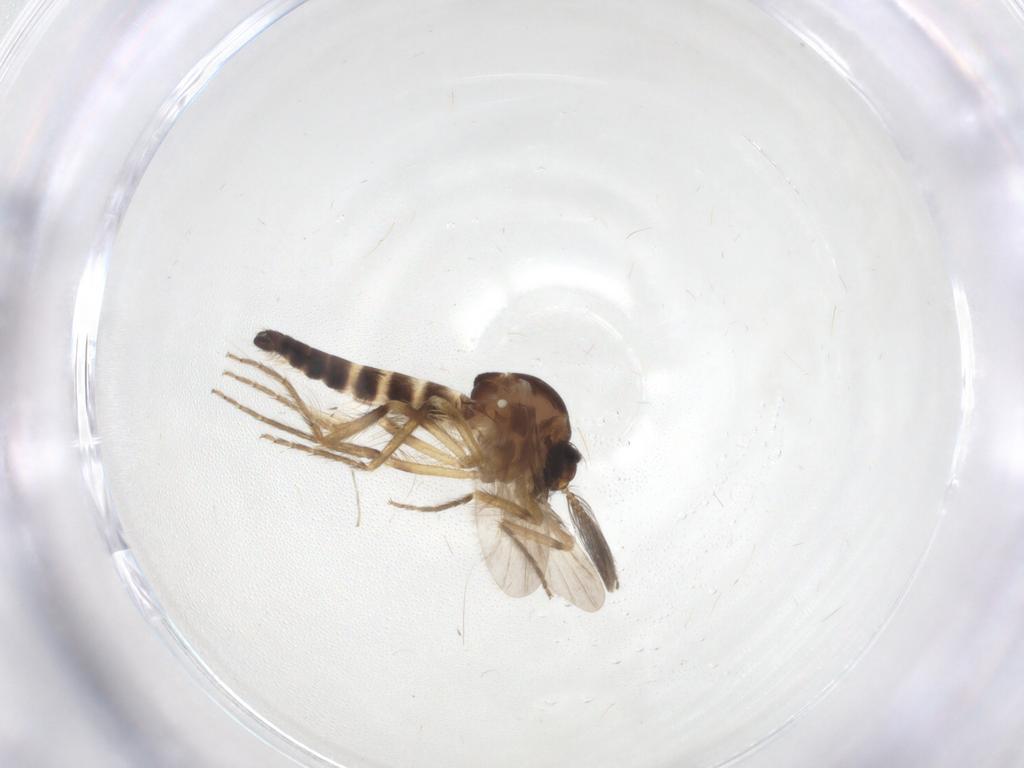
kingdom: Animalia
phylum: Arthropoda
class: Insecta
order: Diptera
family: Ceratopogonidae
